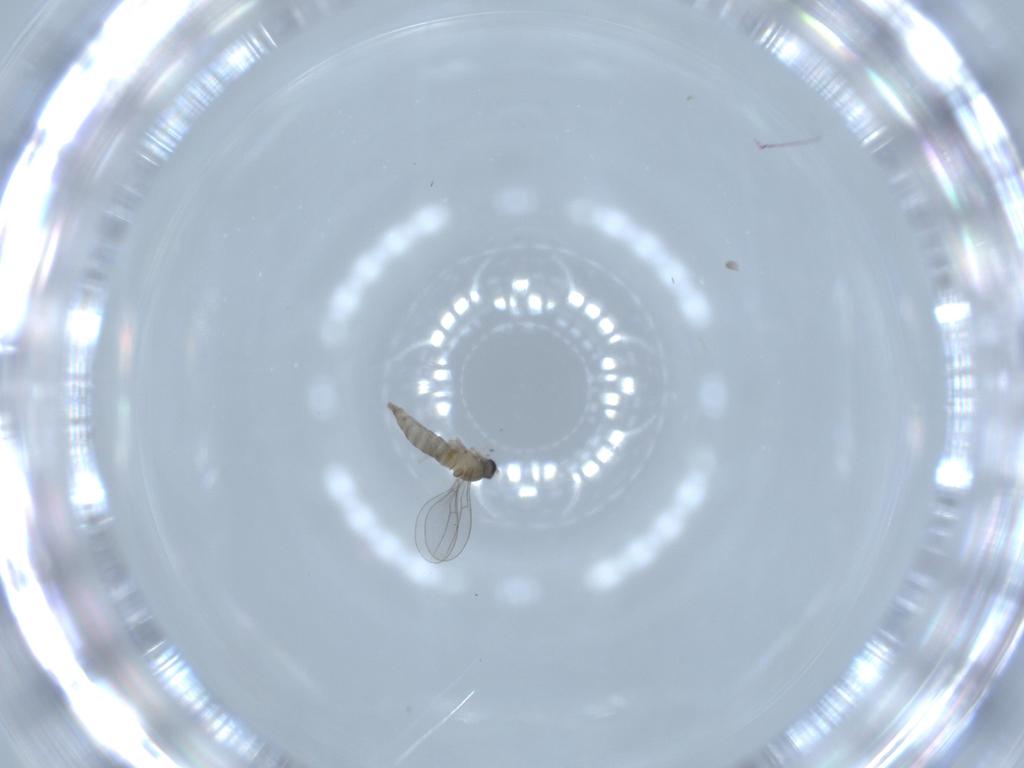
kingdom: Animalia
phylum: Arthropoda
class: Insecta
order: Diptera
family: Cecidomyiidae
